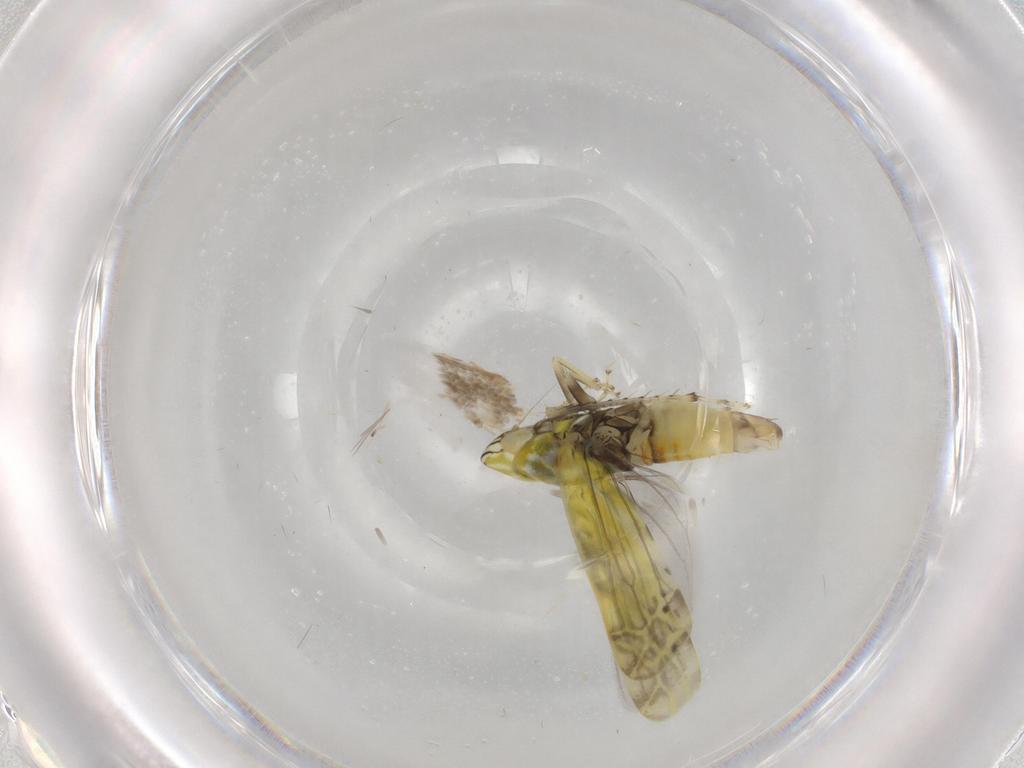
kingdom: Animalia
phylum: Arthropoda
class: Insecta
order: Hemiptera
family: Cicadellidae
